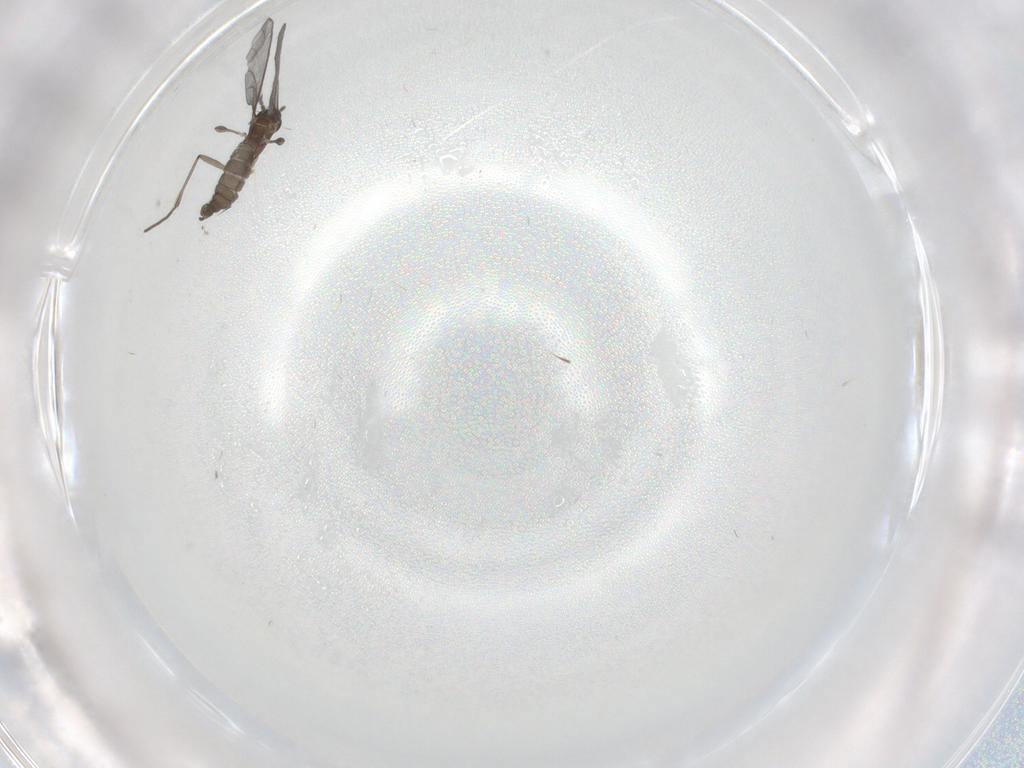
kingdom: Animalia
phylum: Arthropoda
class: Insecta
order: Diptera
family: Sciaridae
